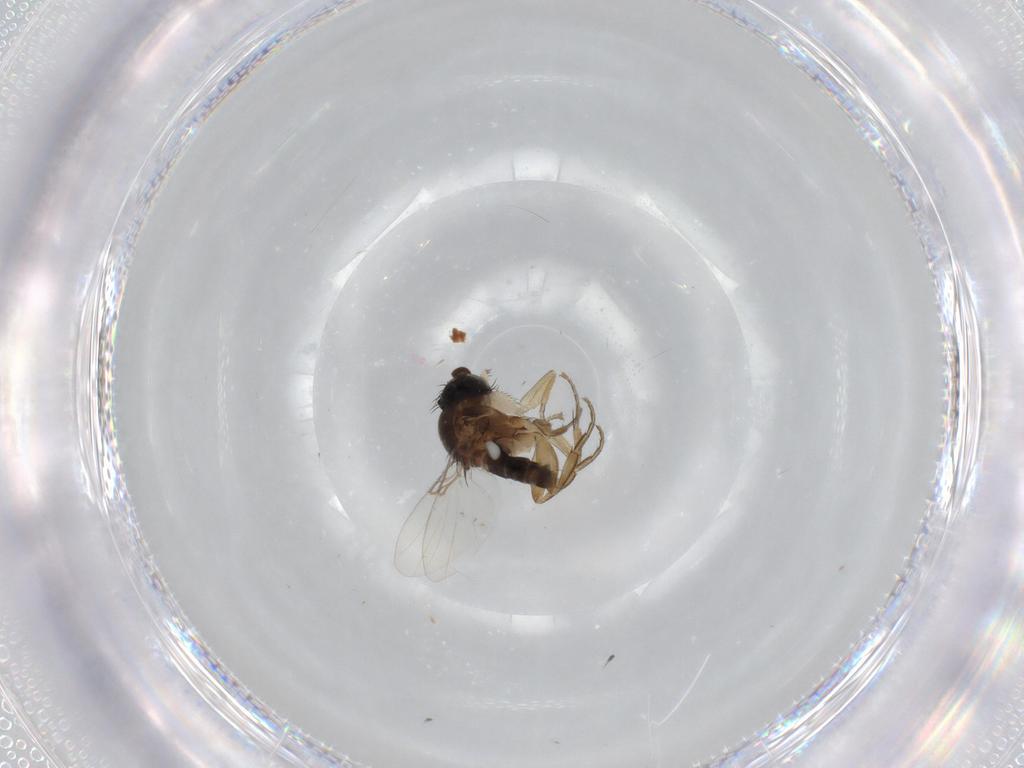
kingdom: Animalia
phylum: Arthropoda
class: Insecta
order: Diptera
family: Phoridae
